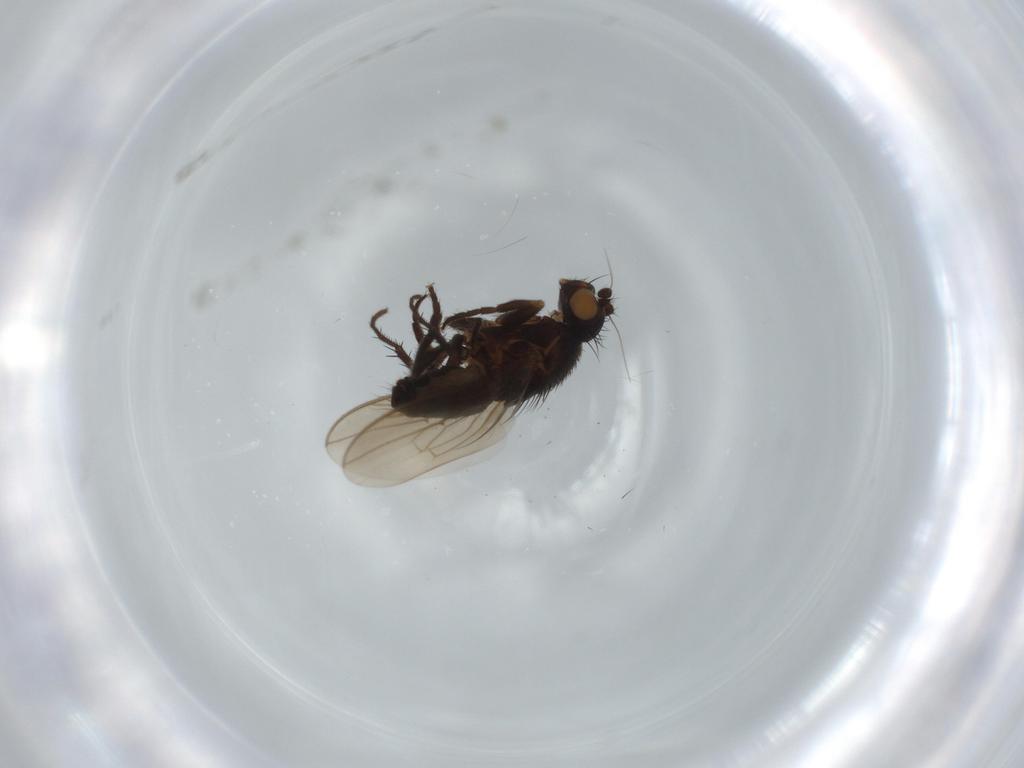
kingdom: Animalia
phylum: Arthropoda
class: Insecta
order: Diptera
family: Sphaeroceridae
